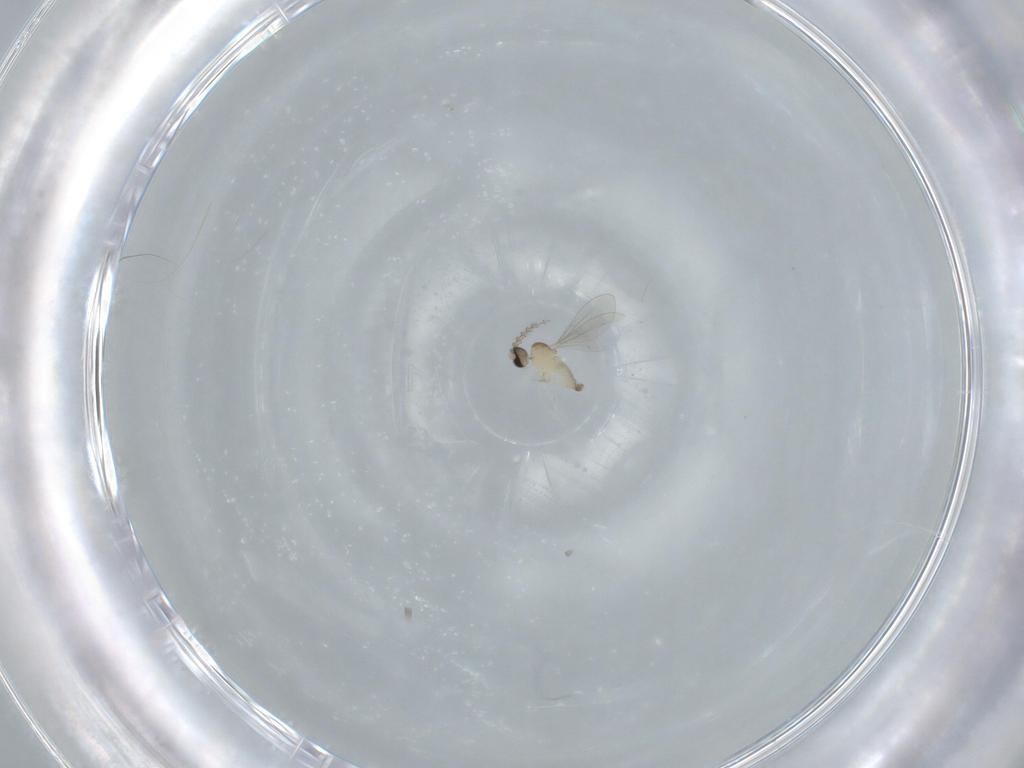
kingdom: Animalia
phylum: Arthropoda
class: Insecta
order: Diptera
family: Cecidomyiidae
